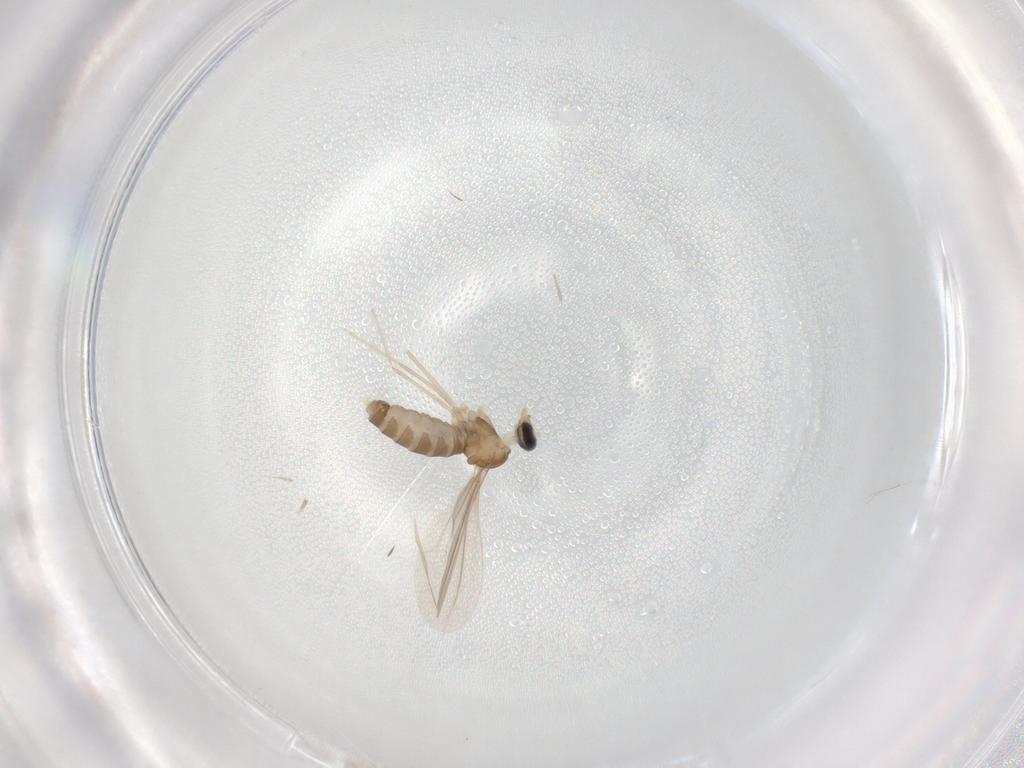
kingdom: Animalia
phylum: Arthropoda
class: Insecta
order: Diptera
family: Cecidomyiidae
